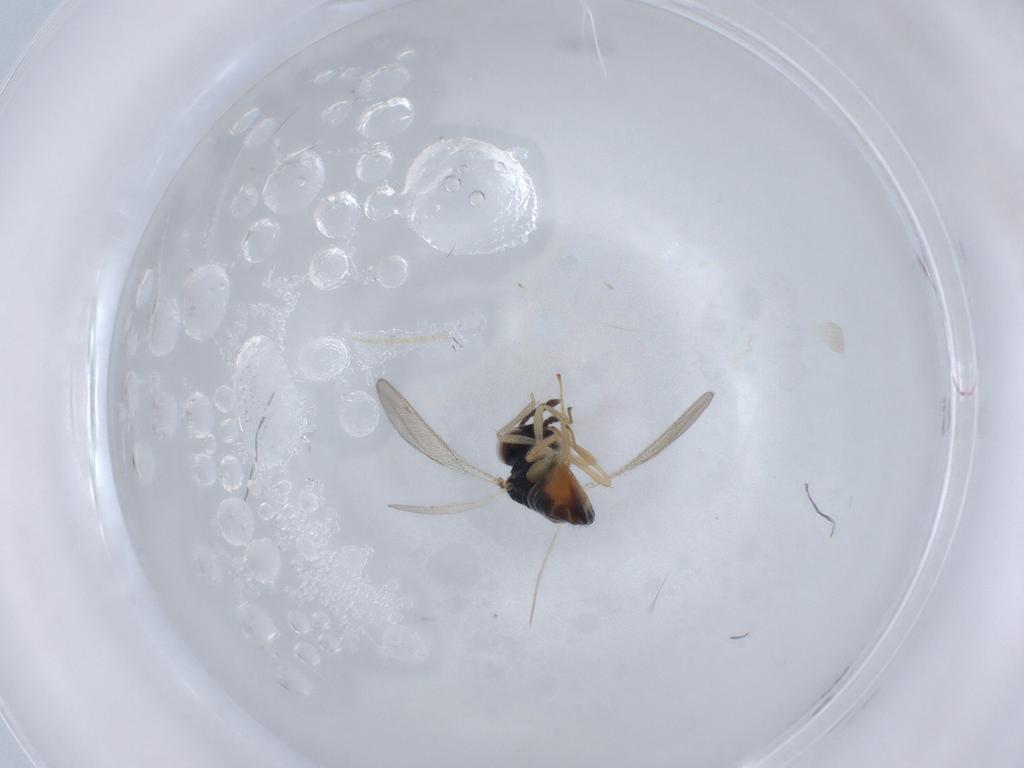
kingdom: Animalia
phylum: Arthropoda
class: Insecta
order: Hymenoptera
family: Eulophidae
